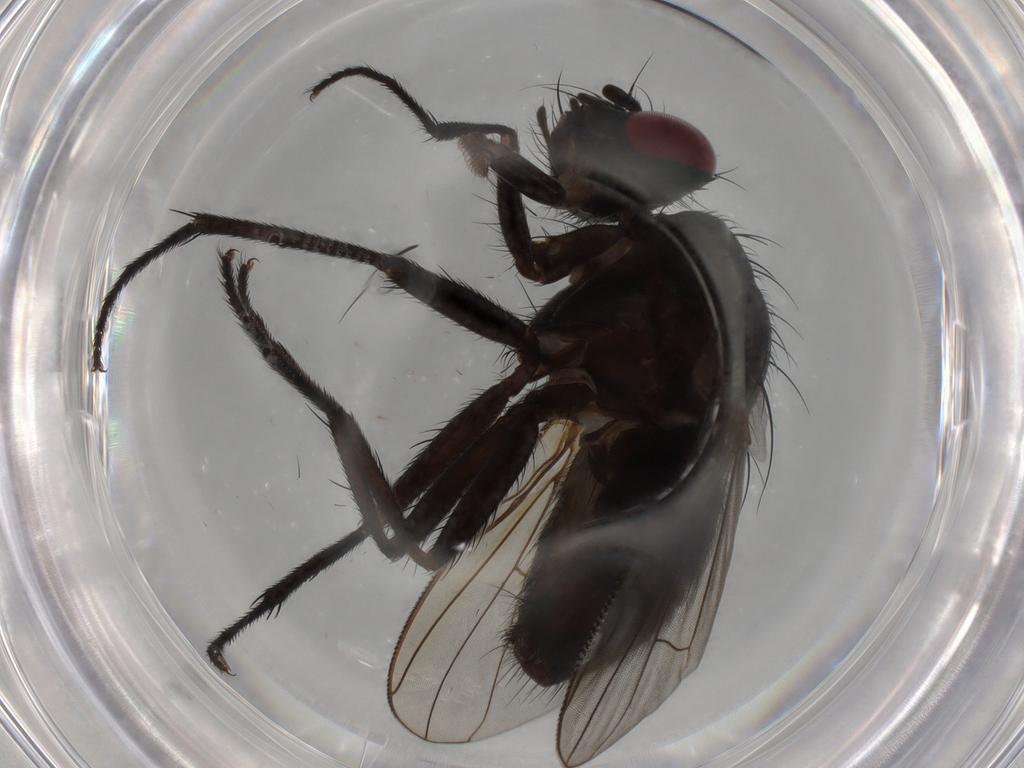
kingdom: Animalia
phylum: Arthropoda
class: Insecta
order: Diptera
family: Muscidae
